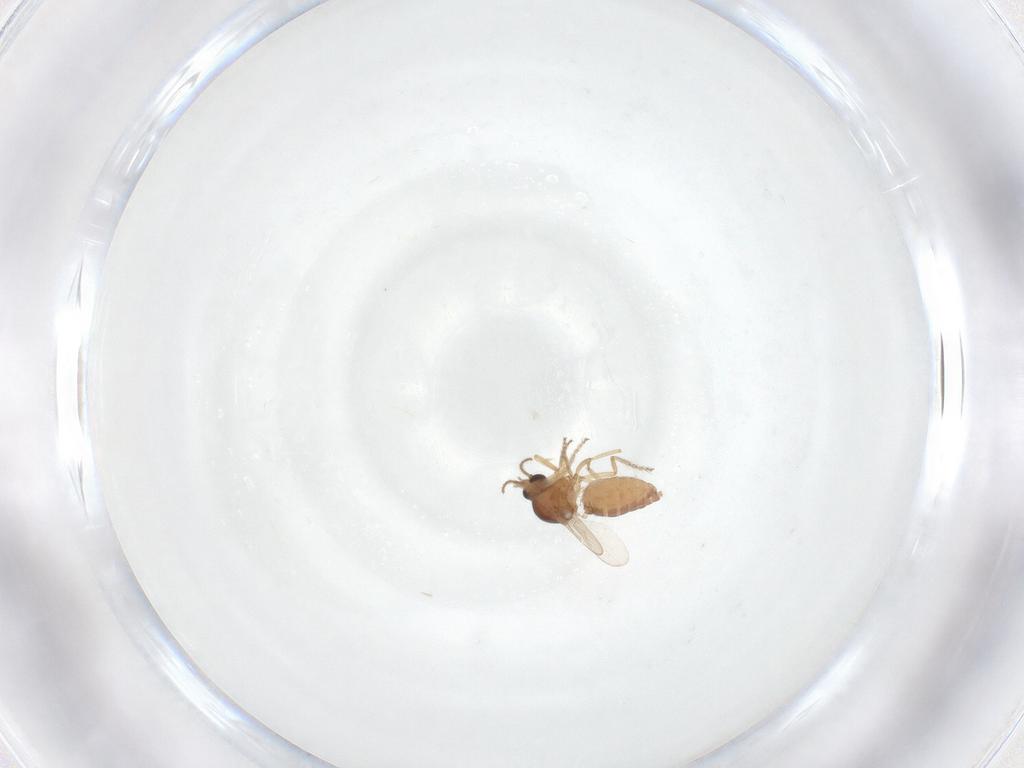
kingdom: Animalia
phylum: Arthropoda
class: Insecta
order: Diptera
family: Ceratopogonidae
